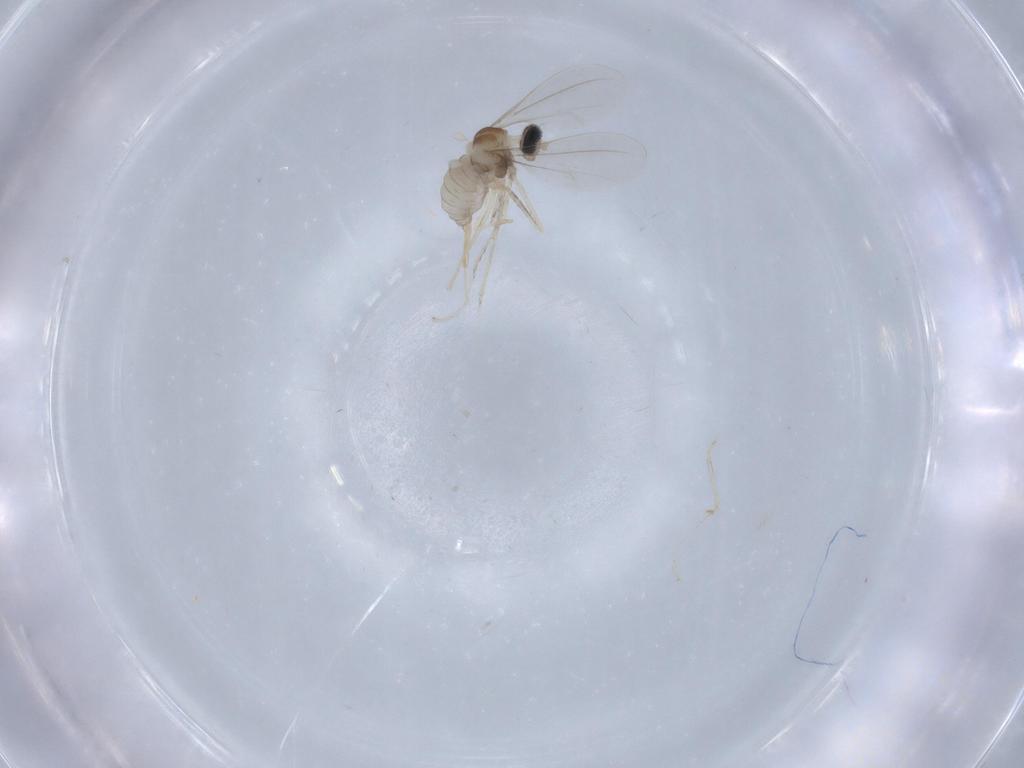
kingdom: Animalia
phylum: Arthropoda
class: Insecta
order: Diptera
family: Cecidomyiidae
